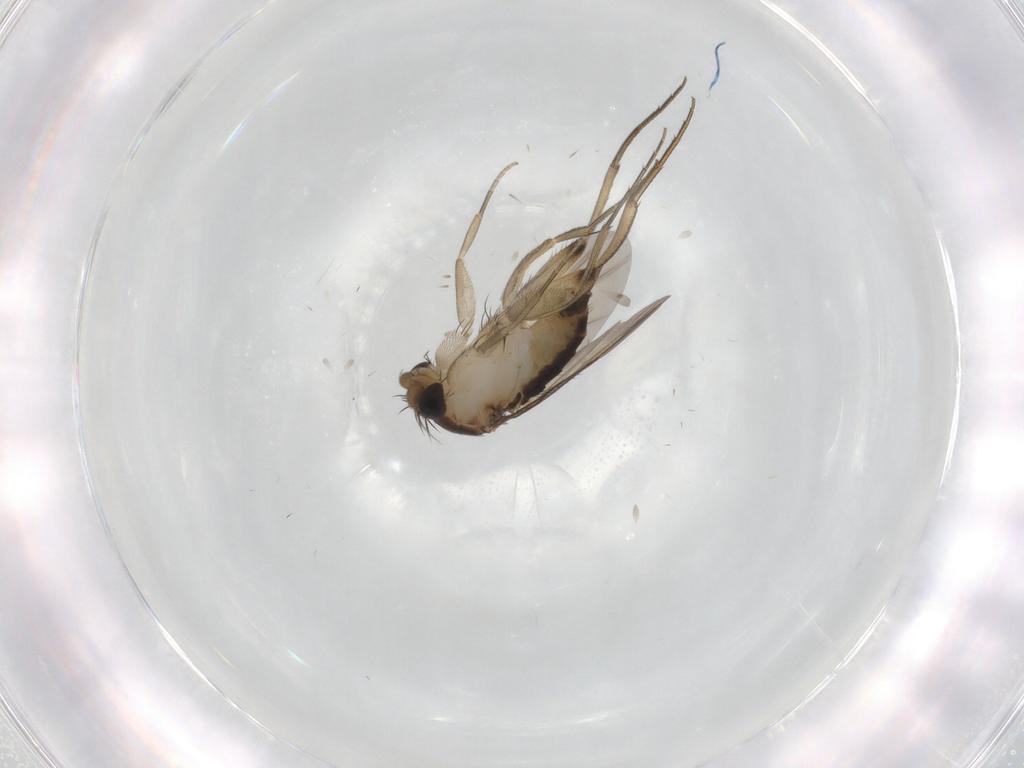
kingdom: Animalia
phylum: Arthropoda
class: Insecta
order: Diptera
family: Phoridae
